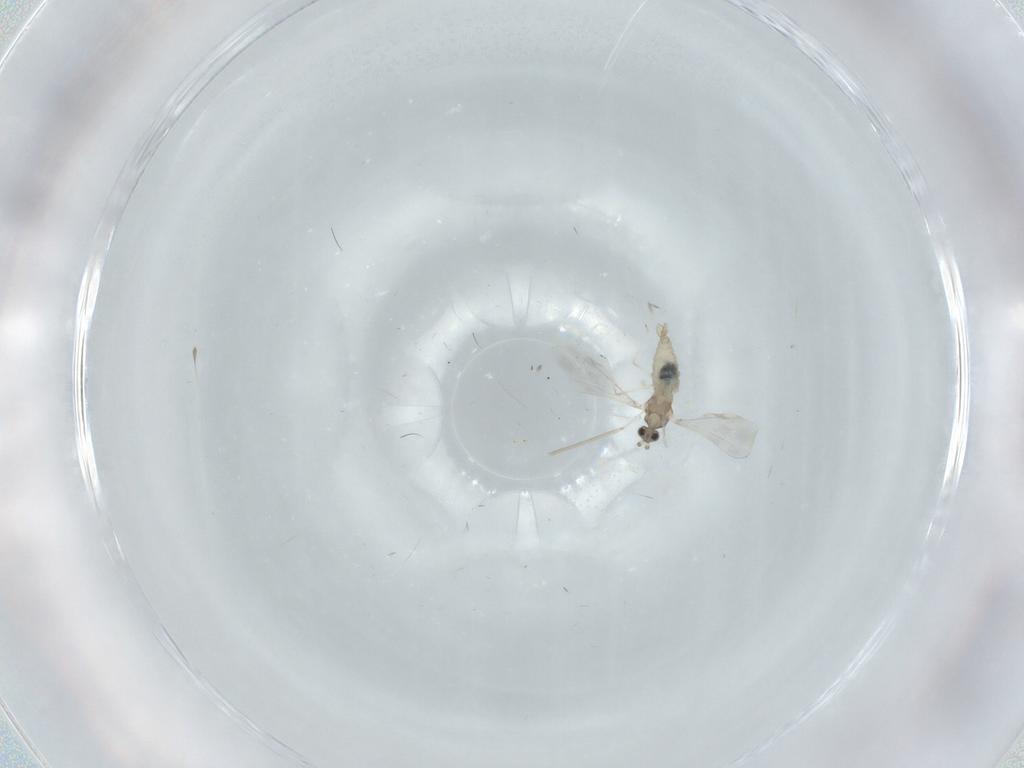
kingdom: Animalia
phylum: Arthropoda
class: Insecta
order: Diptera
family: Cecidomyiidae
